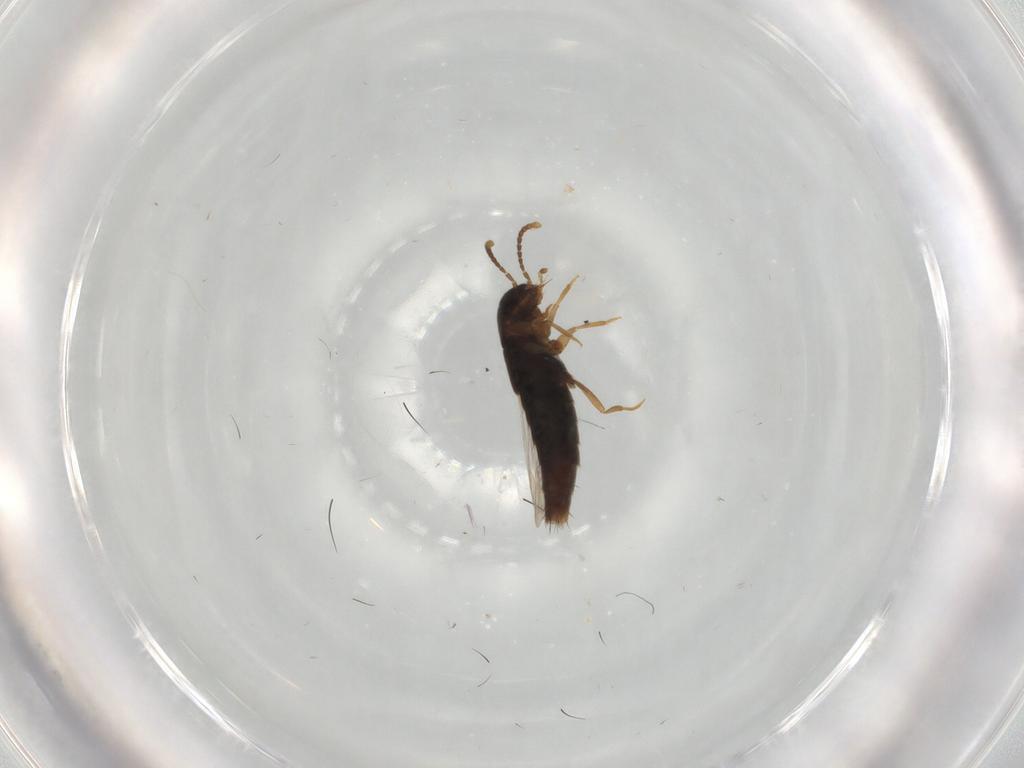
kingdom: Animalia
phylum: Arthropoda
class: Insecta
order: Coleoptera
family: Staphylinidae
